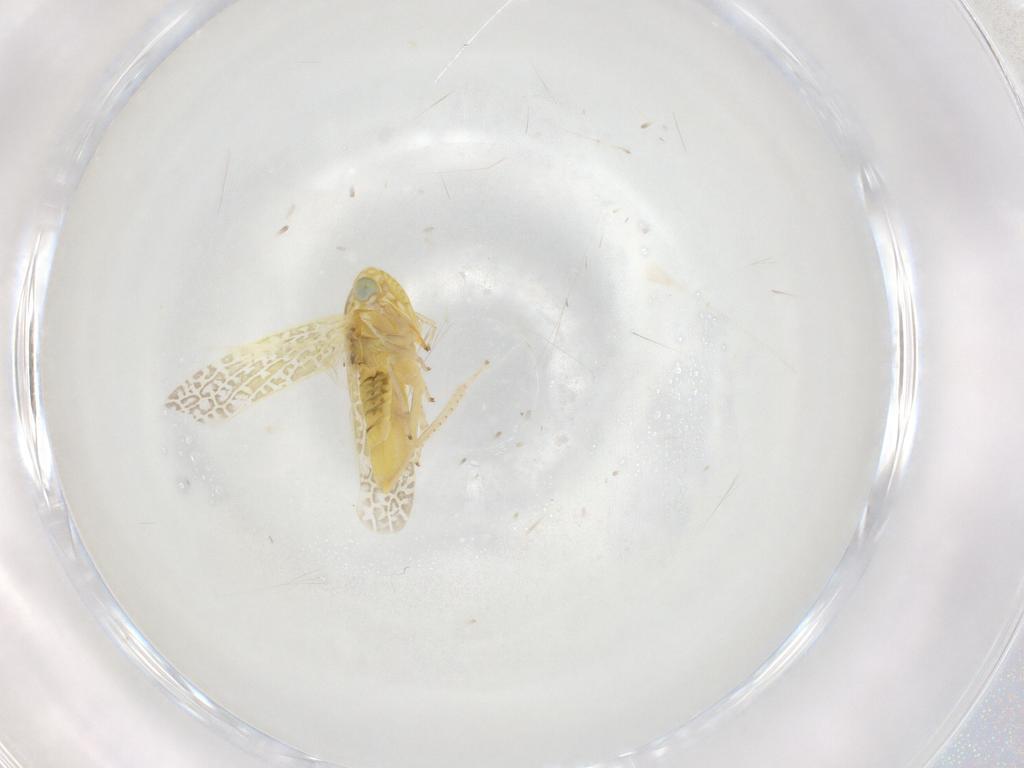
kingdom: Animalia
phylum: Arthropoda
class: Insecta
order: Hemiptera
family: Cicadellidae
